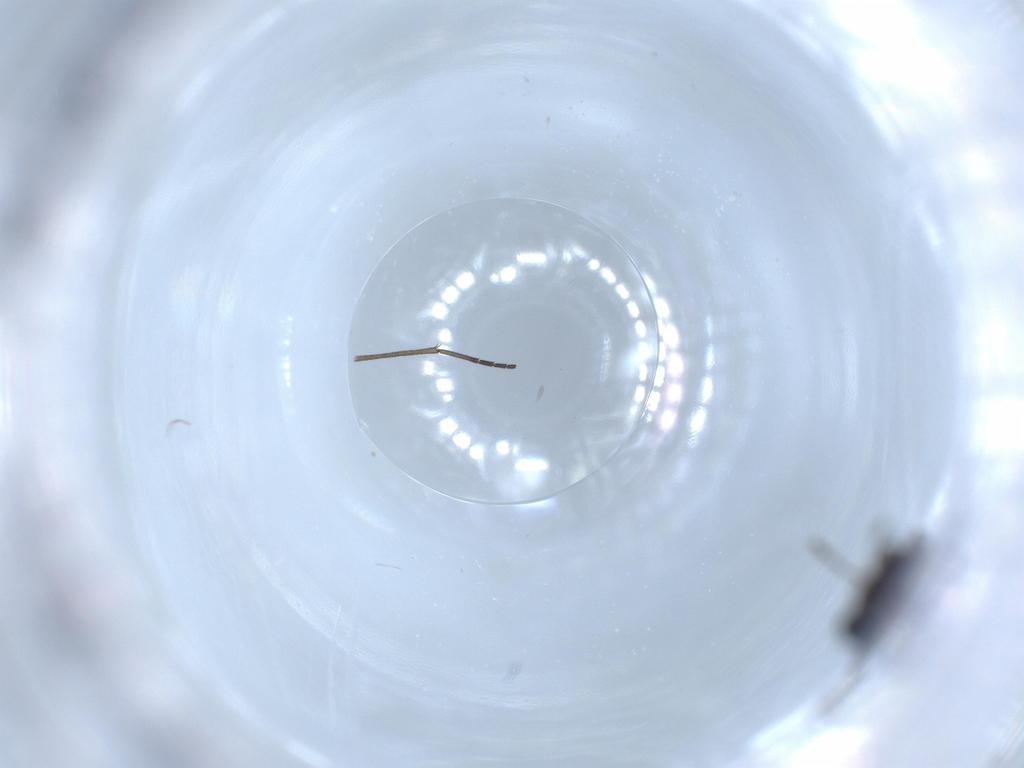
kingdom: Animalia
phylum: Arthropoda
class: Insecta
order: Diptera
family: Sciaridae
